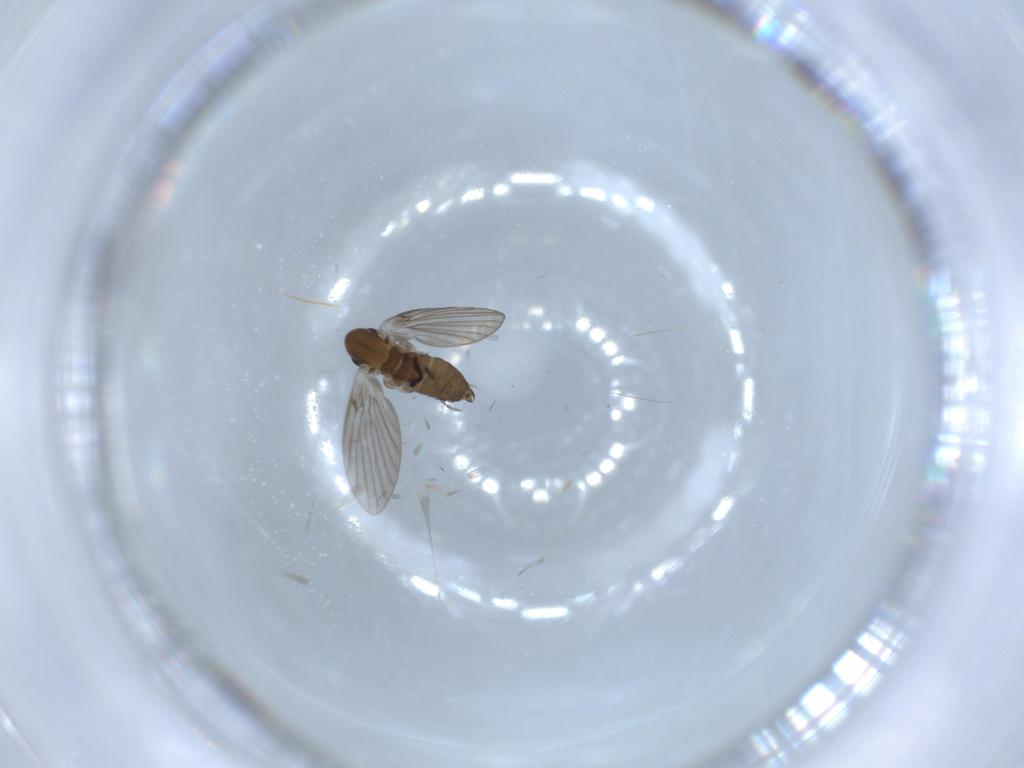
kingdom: Animalia
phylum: Arthropoda
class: Insecta
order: Diptera
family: Psychodidae
